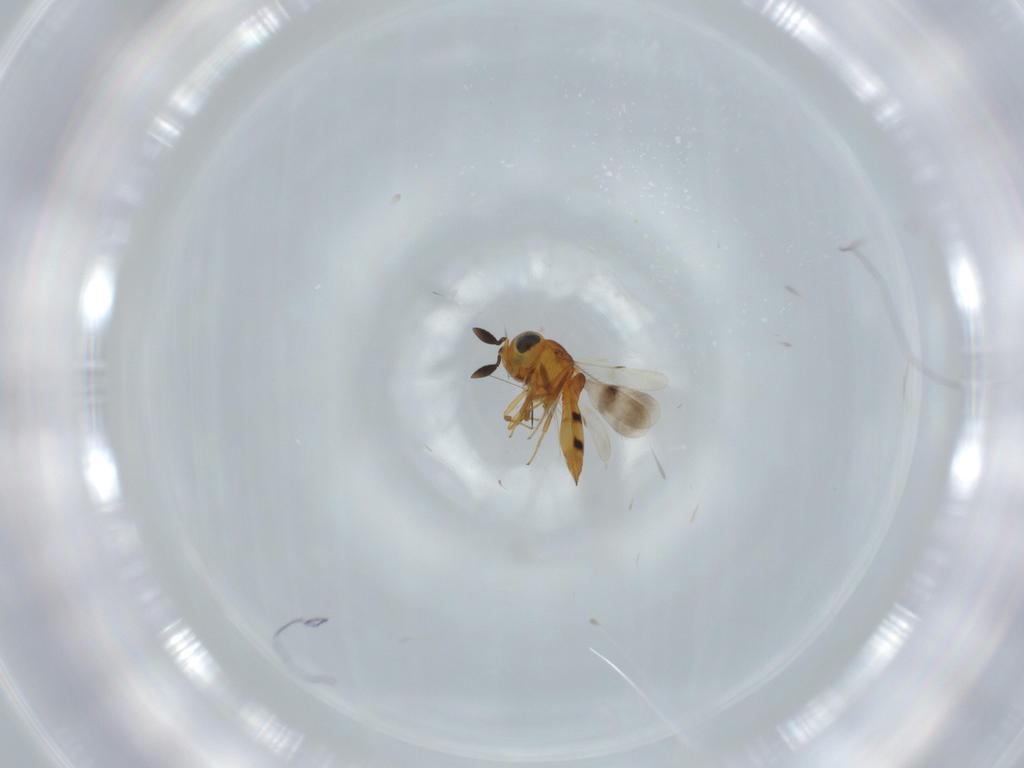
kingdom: Animalia
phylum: Arthropoda
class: Insecta
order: Hymenoptera
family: Scelionidae
